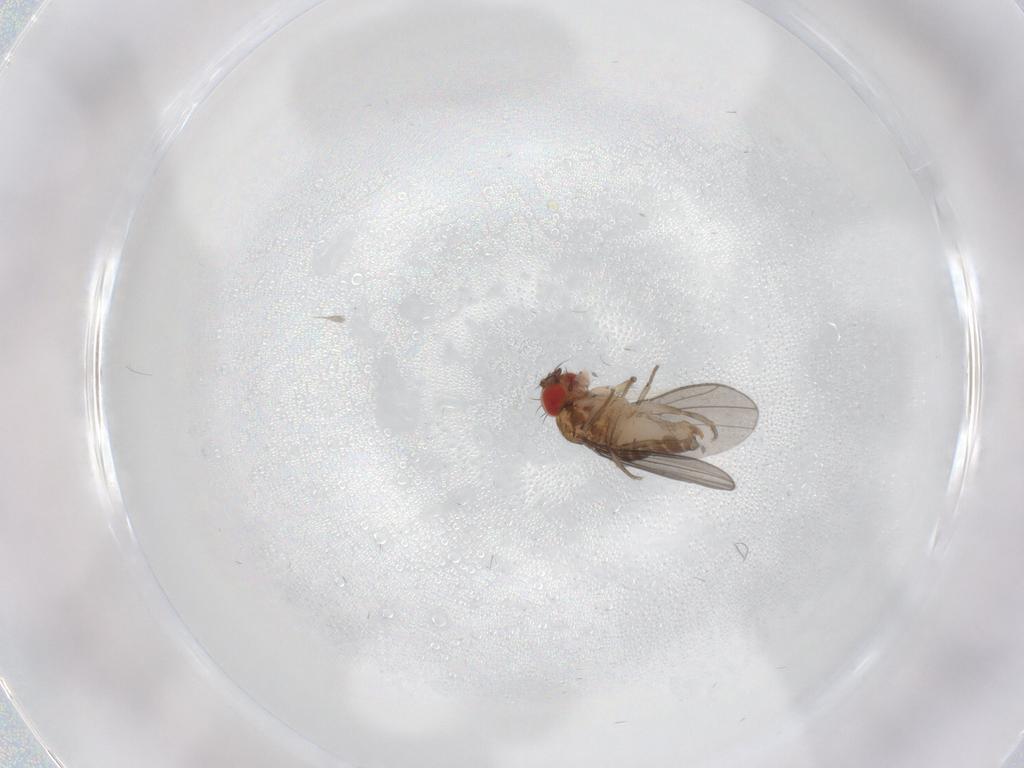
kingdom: Animalia
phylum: Arthropoda
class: Insecta
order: Diptera
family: Drosophilidae
